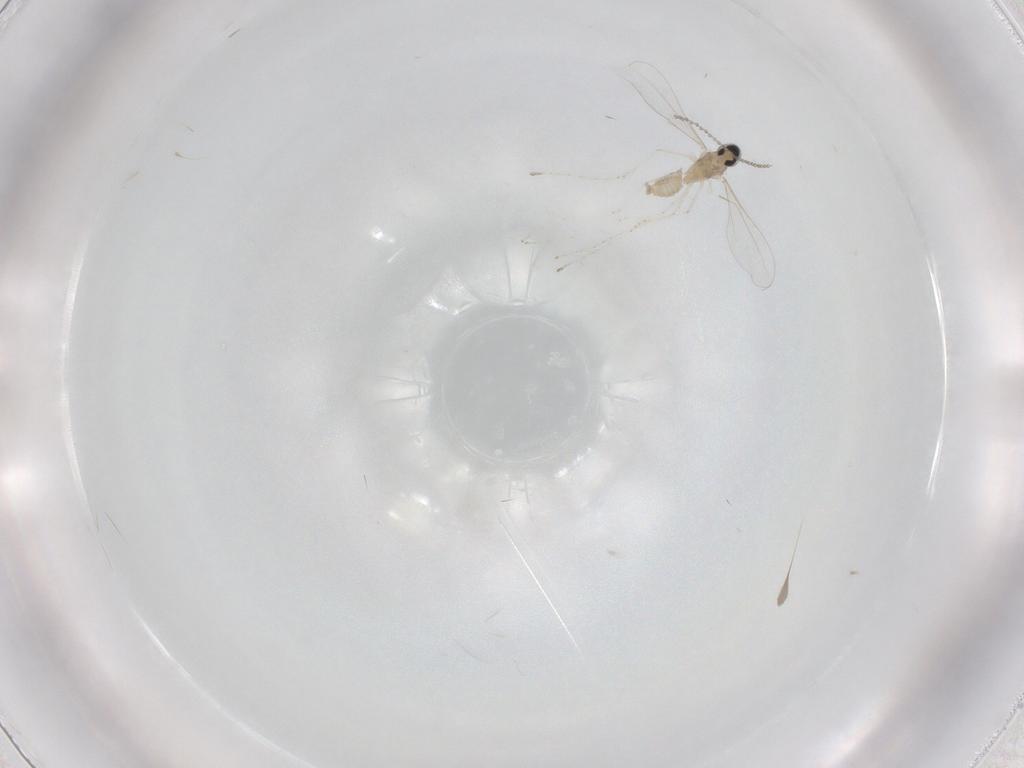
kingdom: Animalia
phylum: Arthropoda
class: Insecta
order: Diptera
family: Ceratopogonidae
